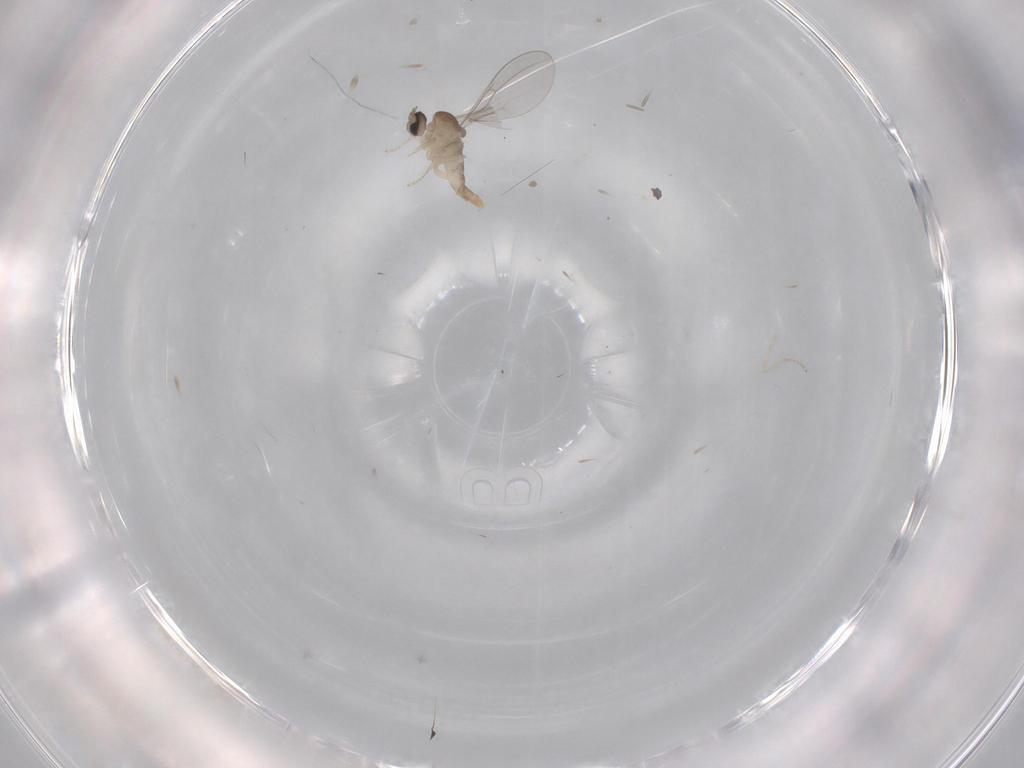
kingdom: Animalia
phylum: Arthropoda
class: Insecta
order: Diptera
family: Cecidomyiidae
